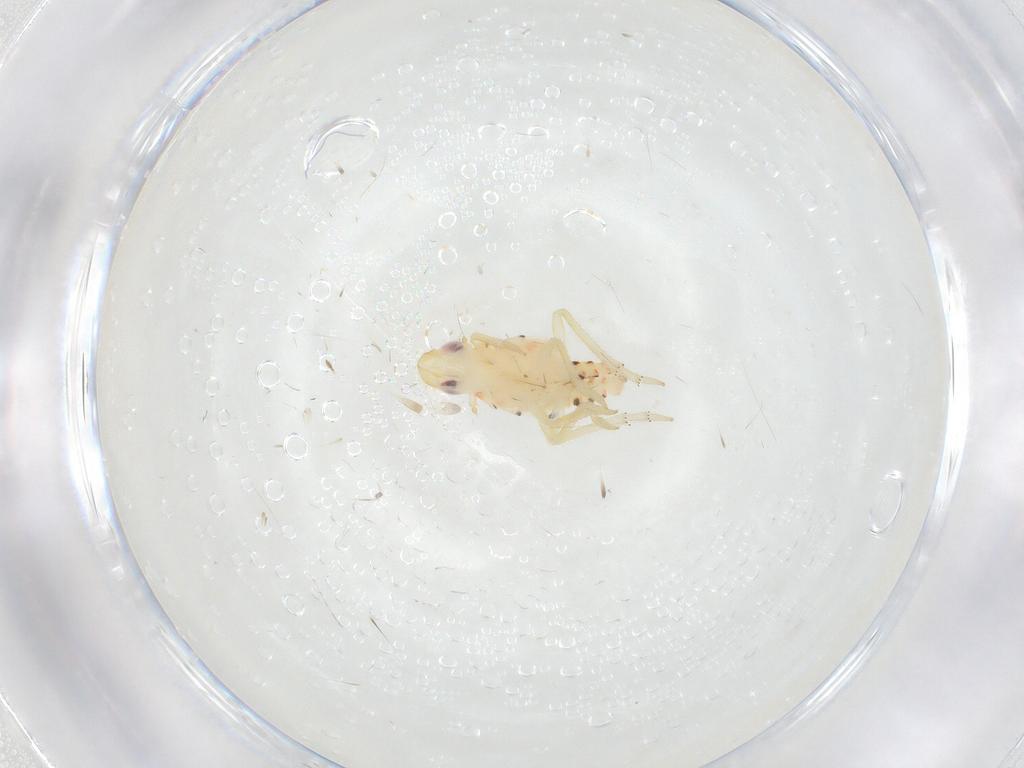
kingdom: Animalia
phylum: Arthropoda
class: Insecta
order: Hemiptera
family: Tropiduchidae
